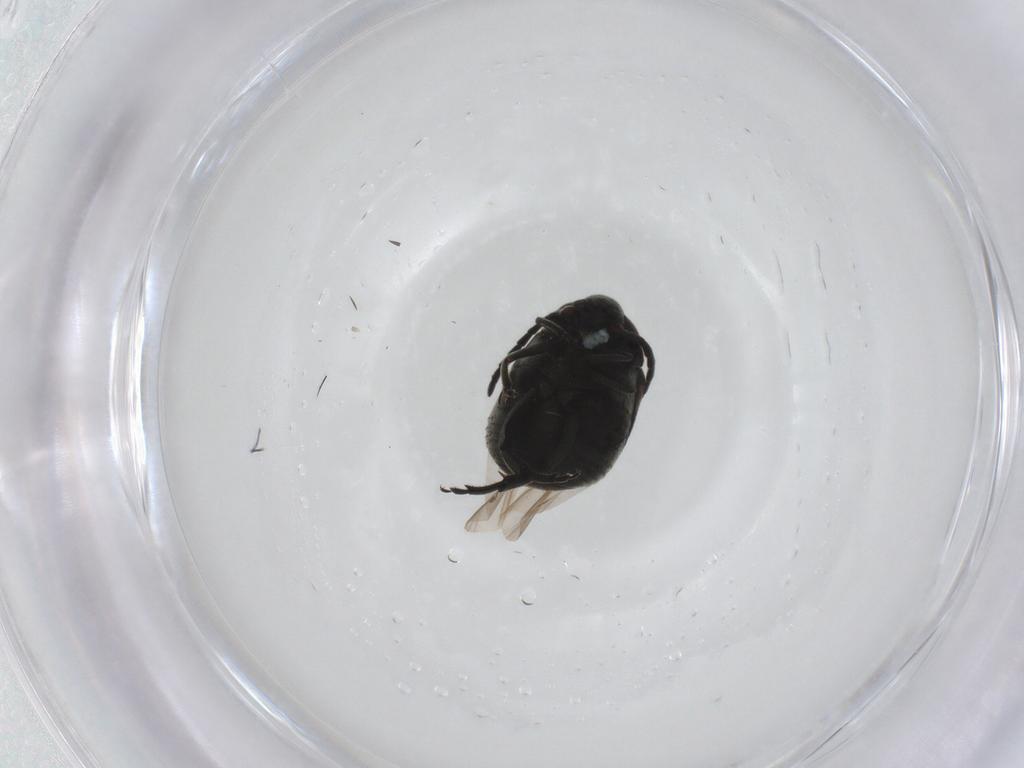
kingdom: Animalia
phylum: Arthropoda
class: Insecta
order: Coleoptera
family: Chrysomelidae
